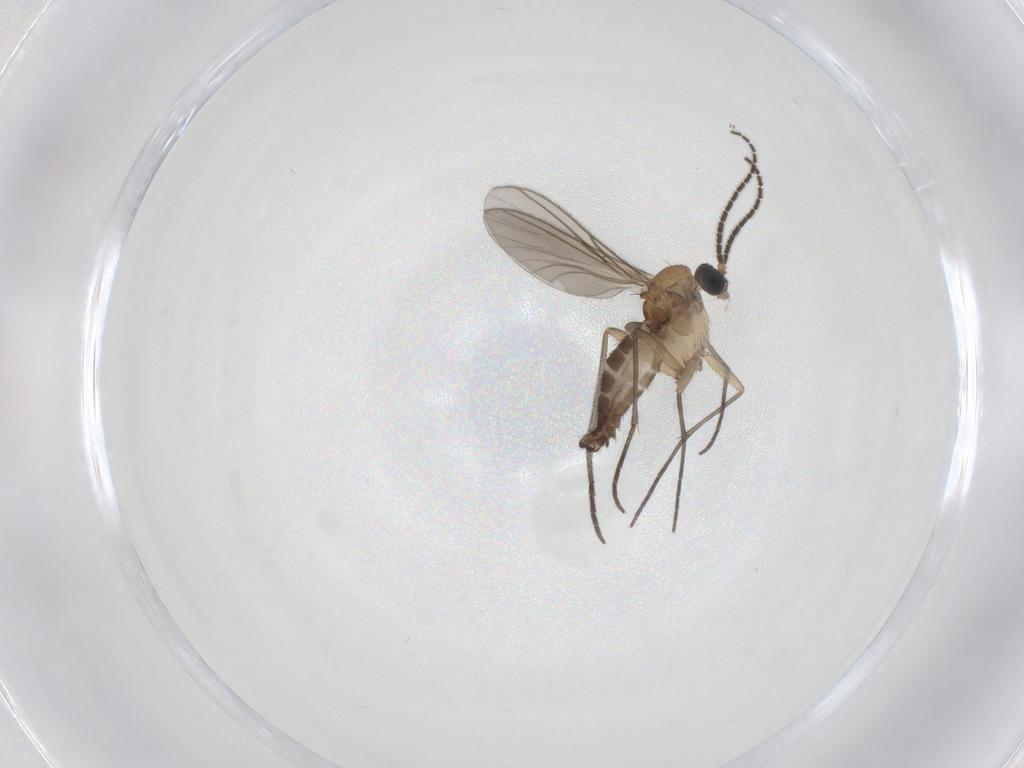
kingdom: Animalia
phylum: Arthropoda
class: Insecta
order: Diptera
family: Sciaridae
